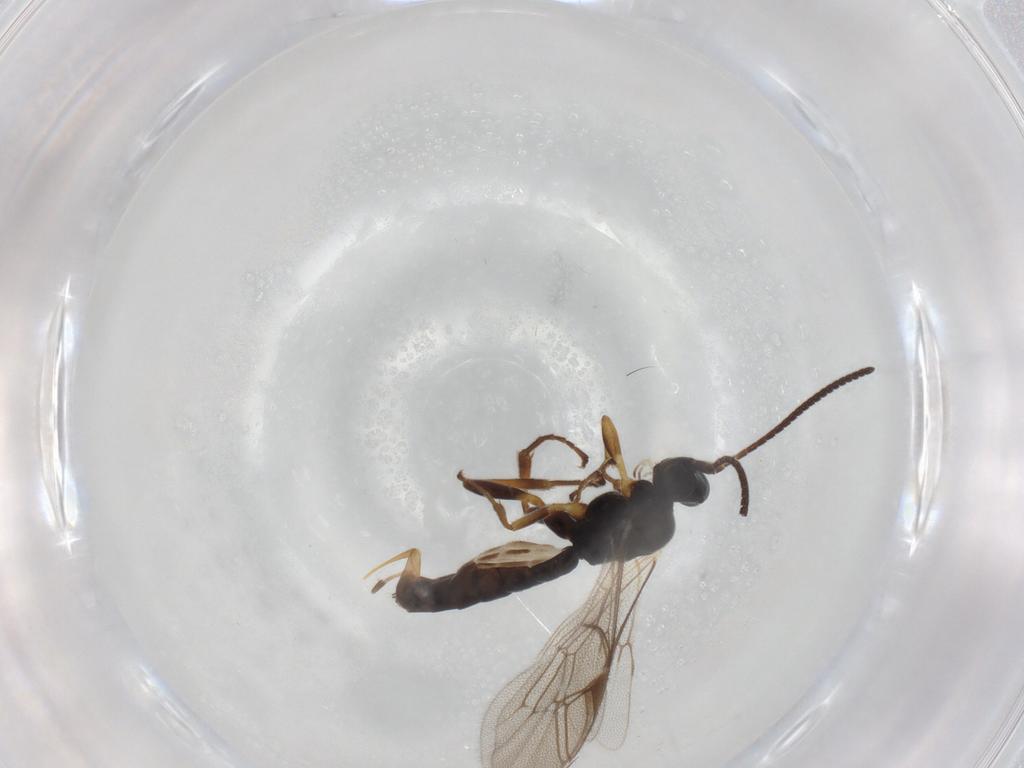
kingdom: Animalia
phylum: Arthropoda
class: Insecta
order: Hymenoptera
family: Ichneumonidae
